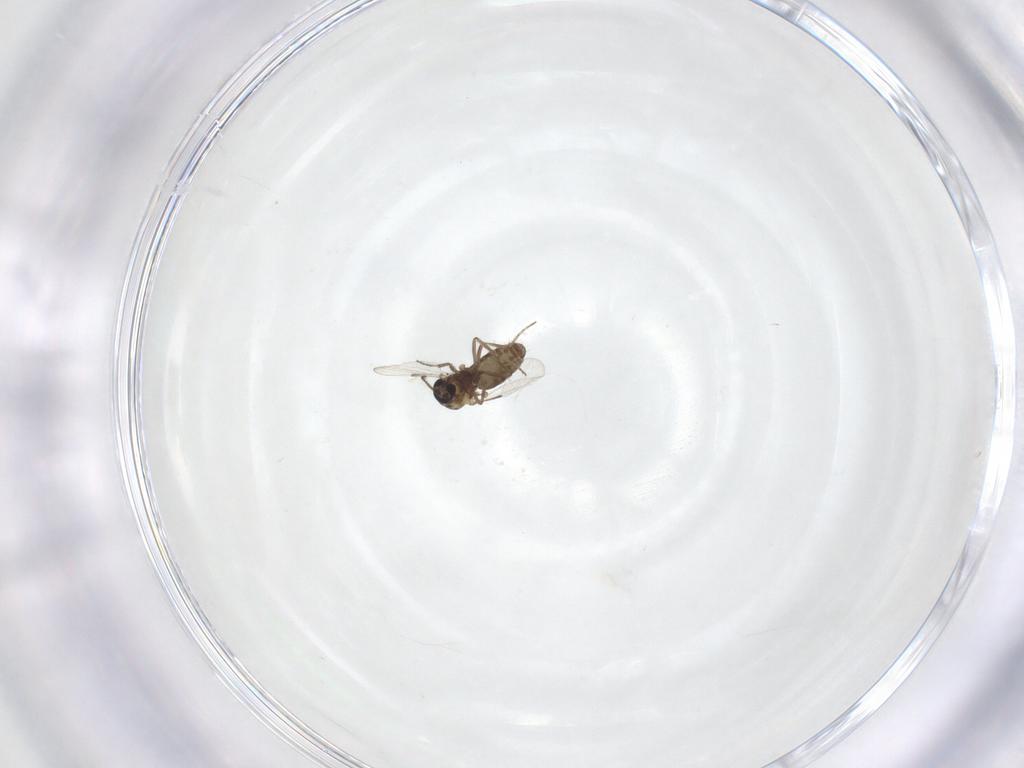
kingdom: Animalia
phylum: Arthropoda
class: Insecta
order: Diptera
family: Ceratopogonidae
